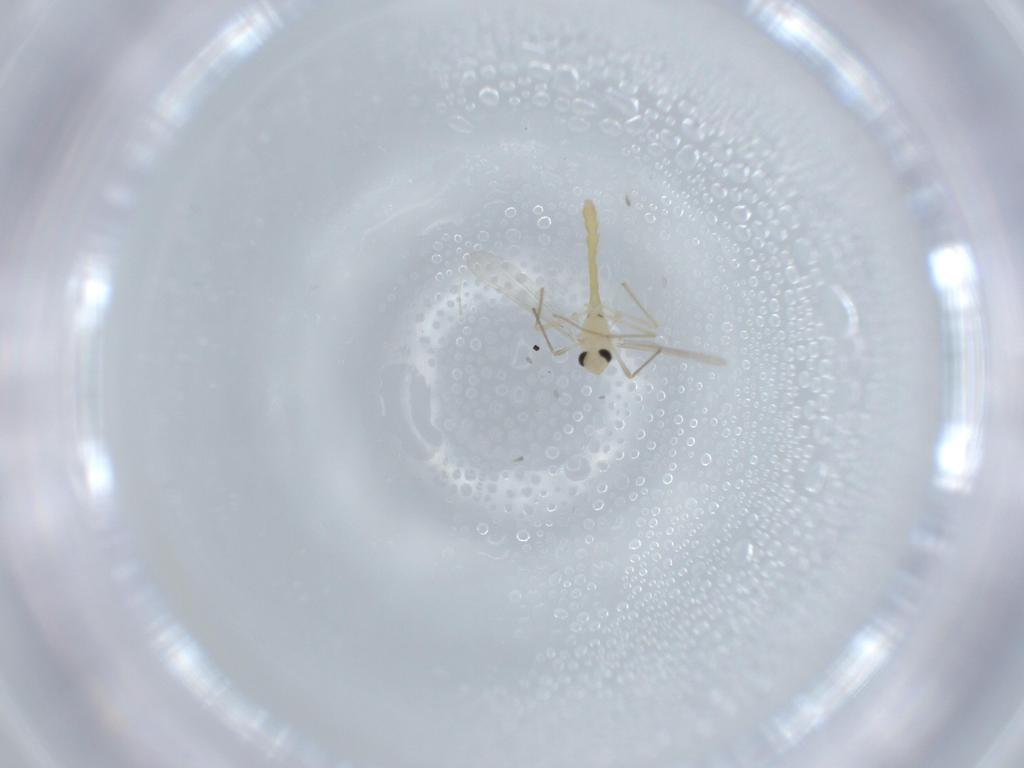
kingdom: Animalia
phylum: Arthropoda
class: Insecta
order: Diptera
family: Chironomidae
